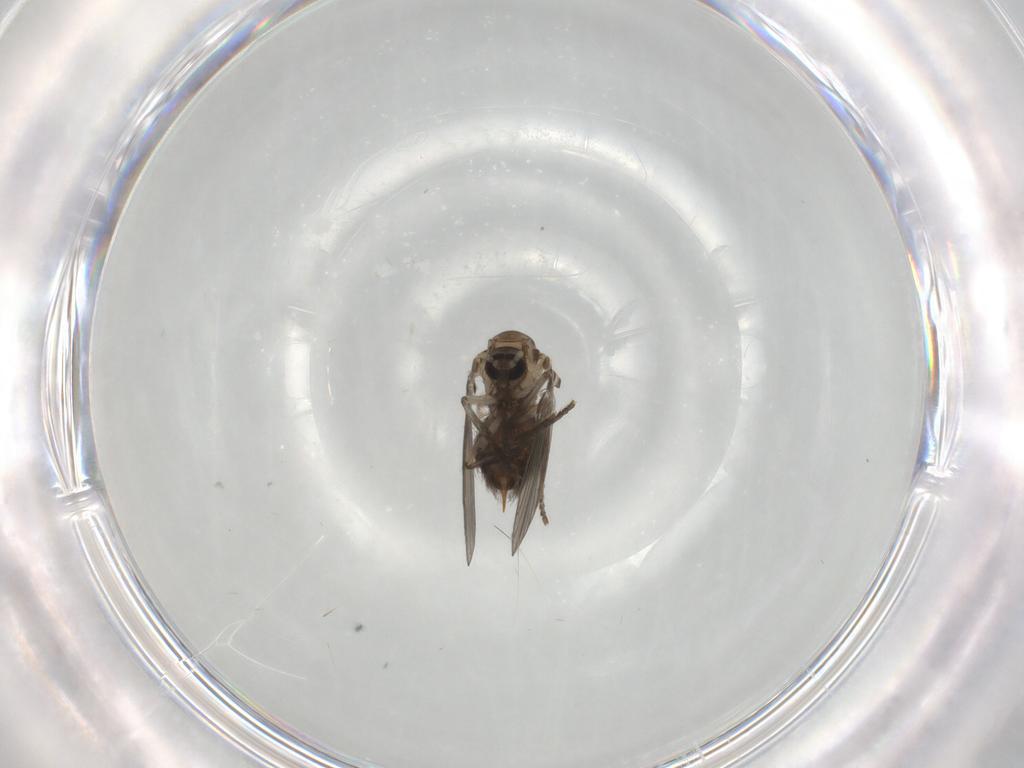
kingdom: Animalia
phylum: Arthropoda
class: Insecta
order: Diptera
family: Psychodidae
